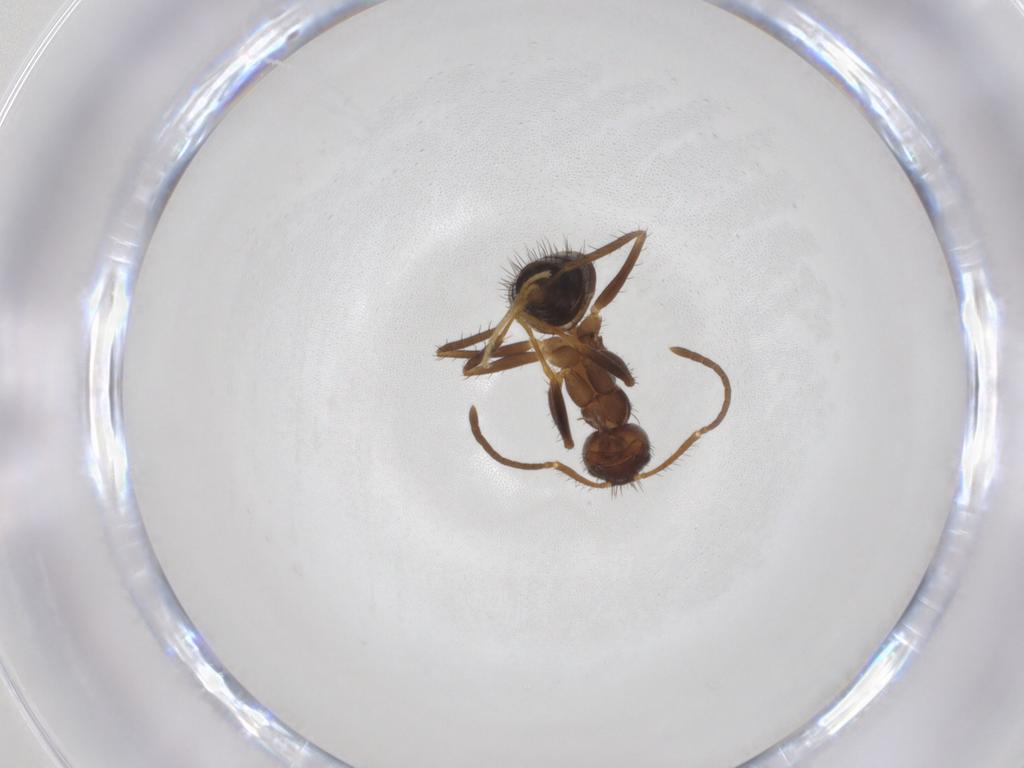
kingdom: Animalia
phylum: Arthropoda
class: Insecta
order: Hymenoptera
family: Formicidae
